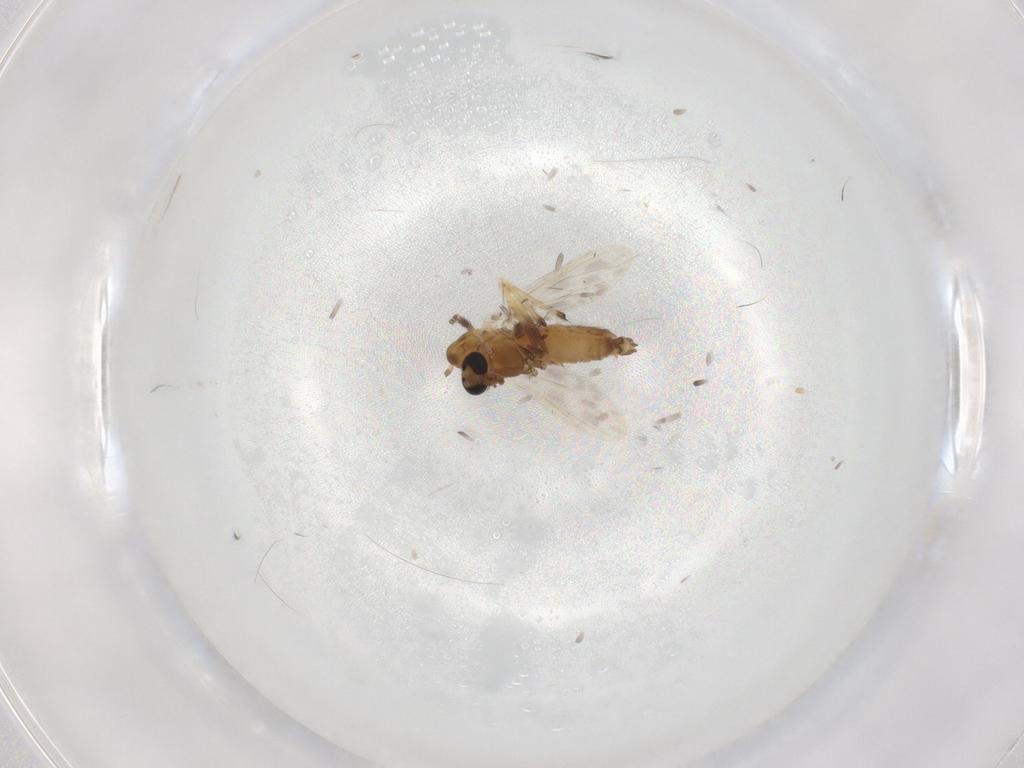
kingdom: Animalia
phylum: Arthropoda
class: Insecta
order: Diptera
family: Chironomidae
